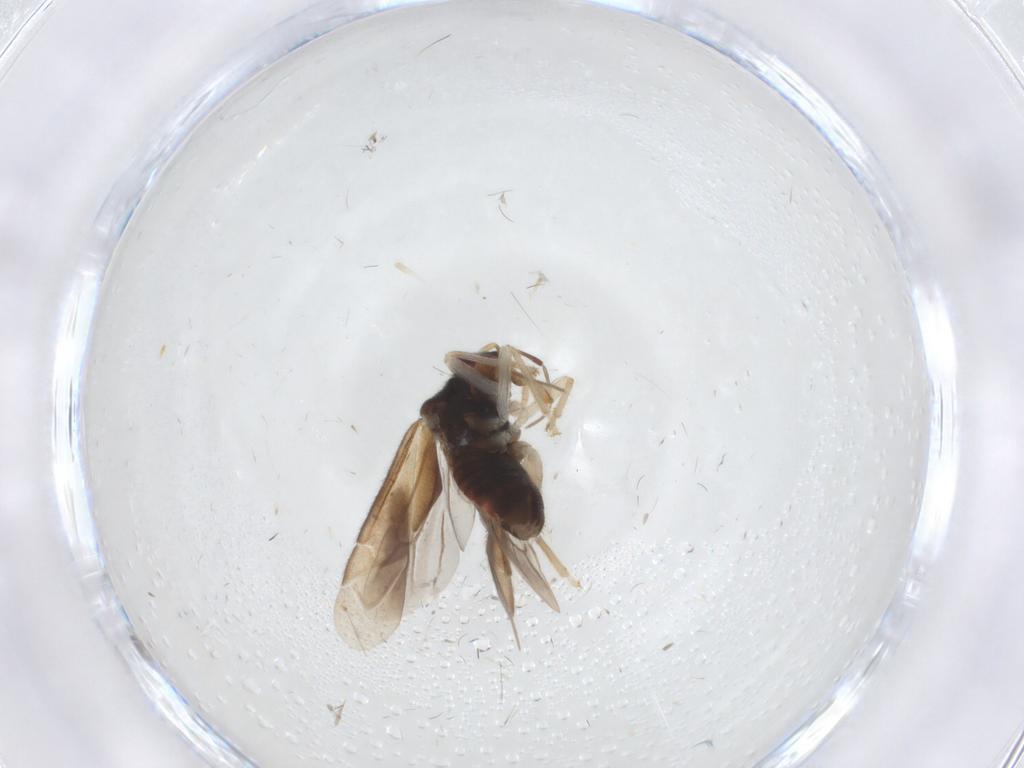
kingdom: Animalia
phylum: Arthropoda
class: Insecta
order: Hemiptera
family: Miridae
